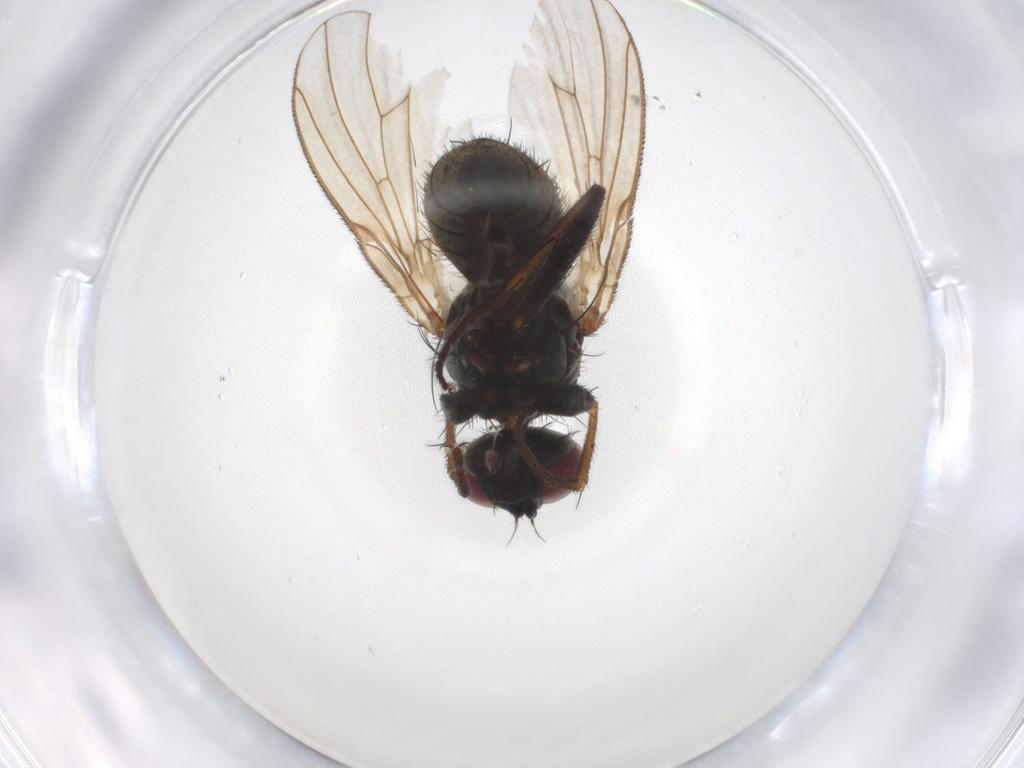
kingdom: Animalia
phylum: Arthropoda
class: Insecta
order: Diptera
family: Muscidae
